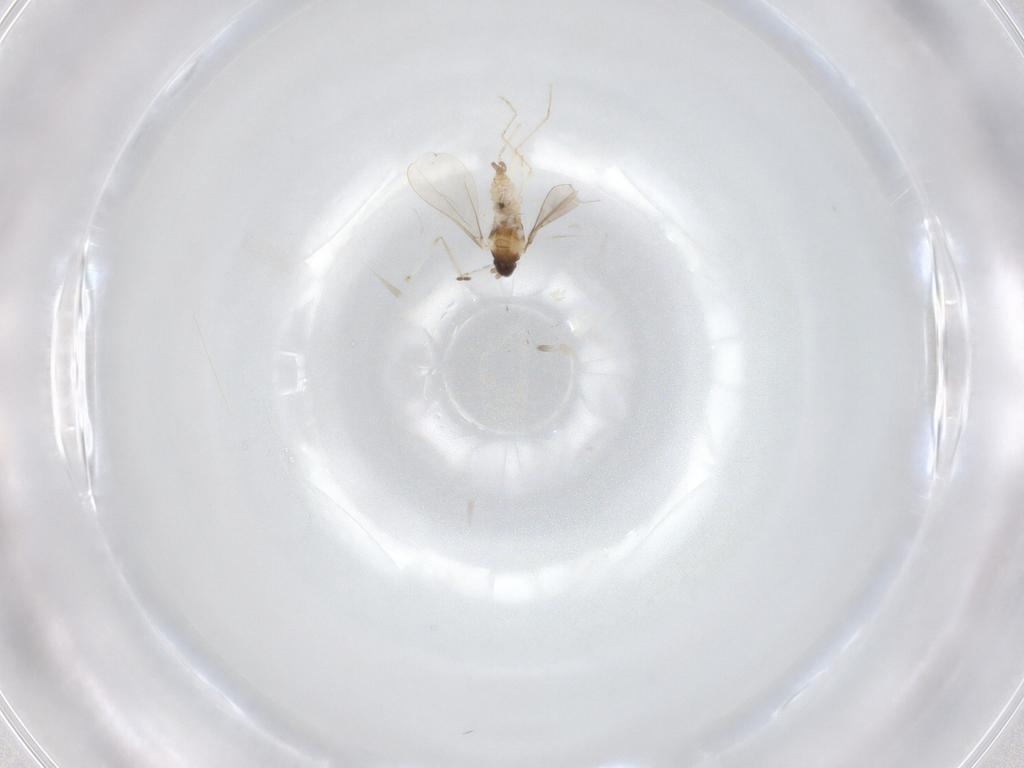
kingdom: Animalia
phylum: Arthropoda
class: Insecta
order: Diptera
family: Cecidomyiidae
